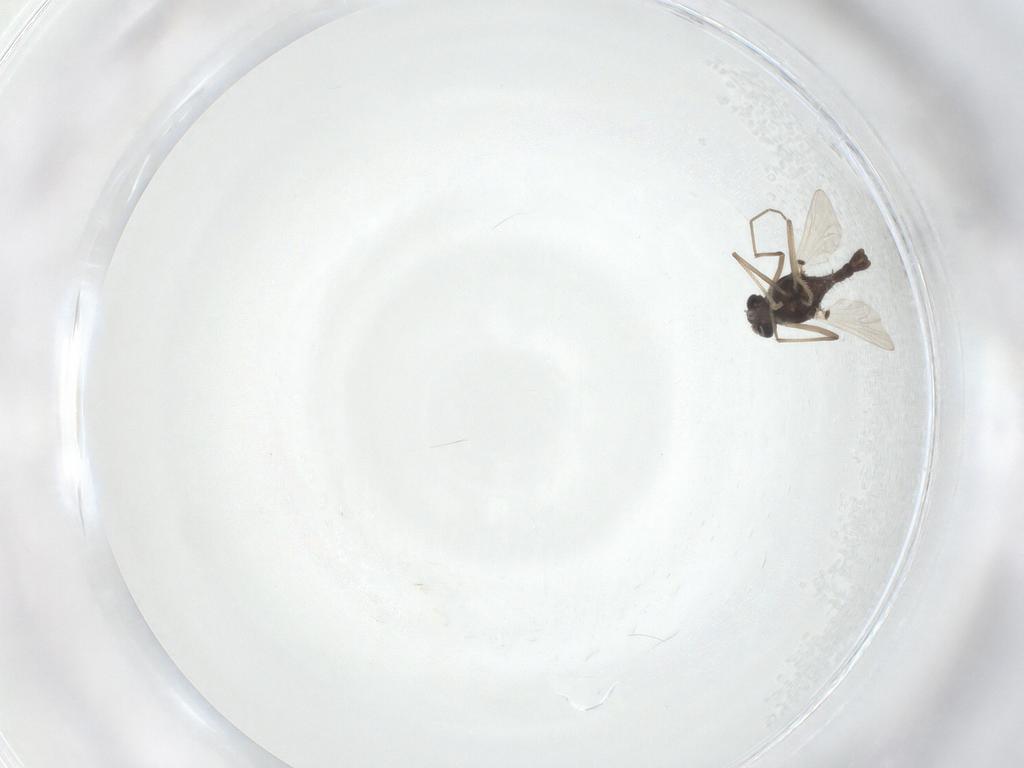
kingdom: Animalia
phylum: Arthropoda
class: Insecta
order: Diptera
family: Chironomidae
